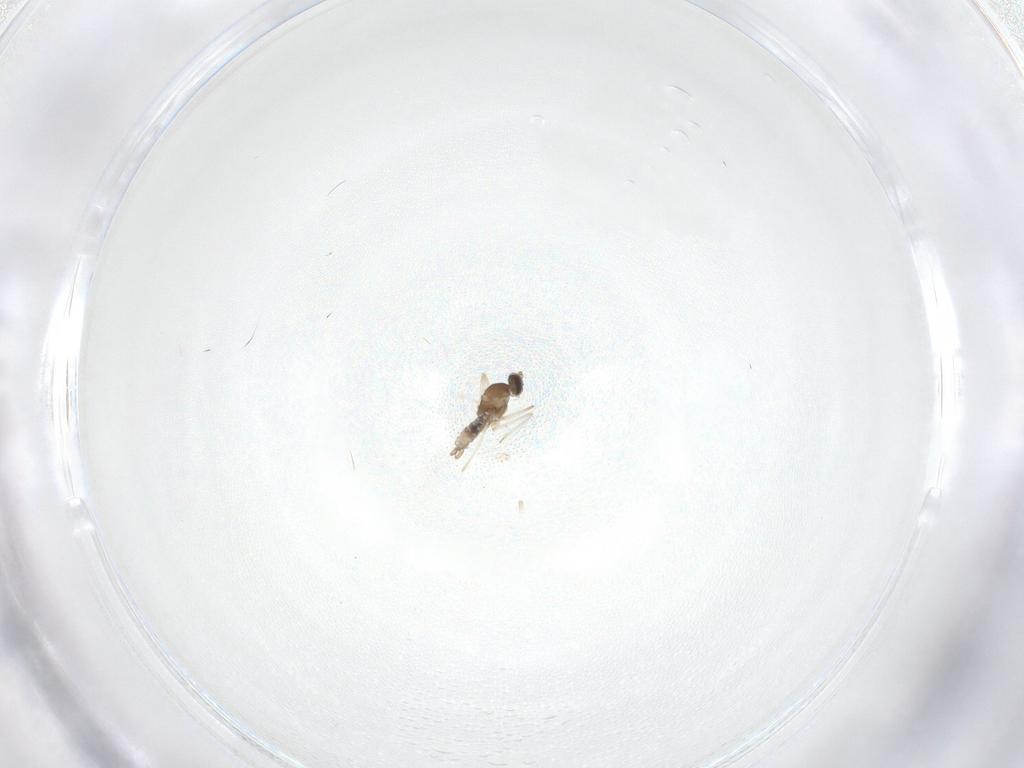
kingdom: Animalia
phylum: Arthropoda
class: Insecta
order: Diptera
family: Cecidomyiidae
